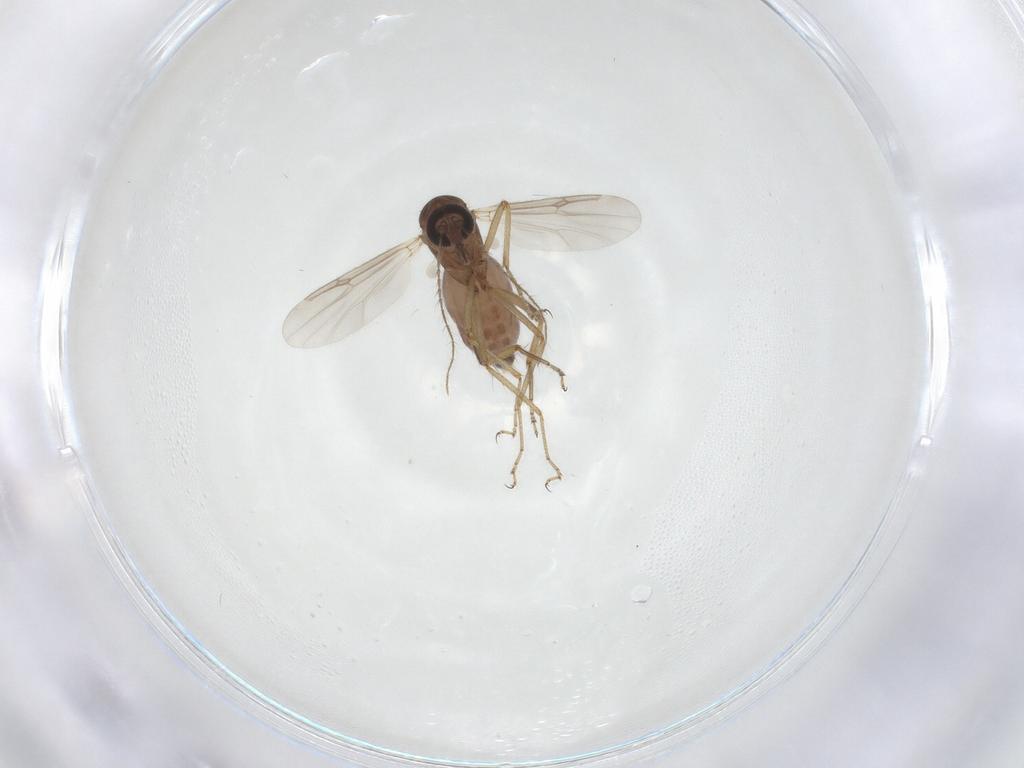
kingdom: Animalia
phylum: Arthropoda
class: Insecta
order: Diptera
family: Ceratopogonidae
